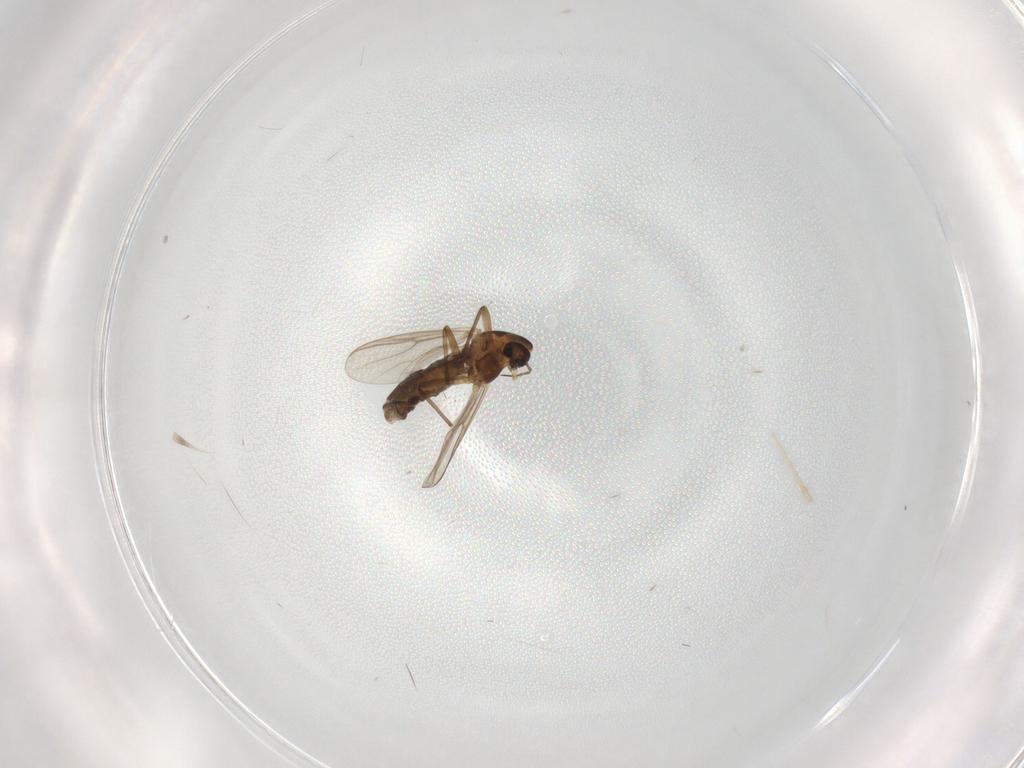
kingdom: Animalia
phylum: Arthropoda
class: Insecta
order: Diptera
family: Chironomidae
